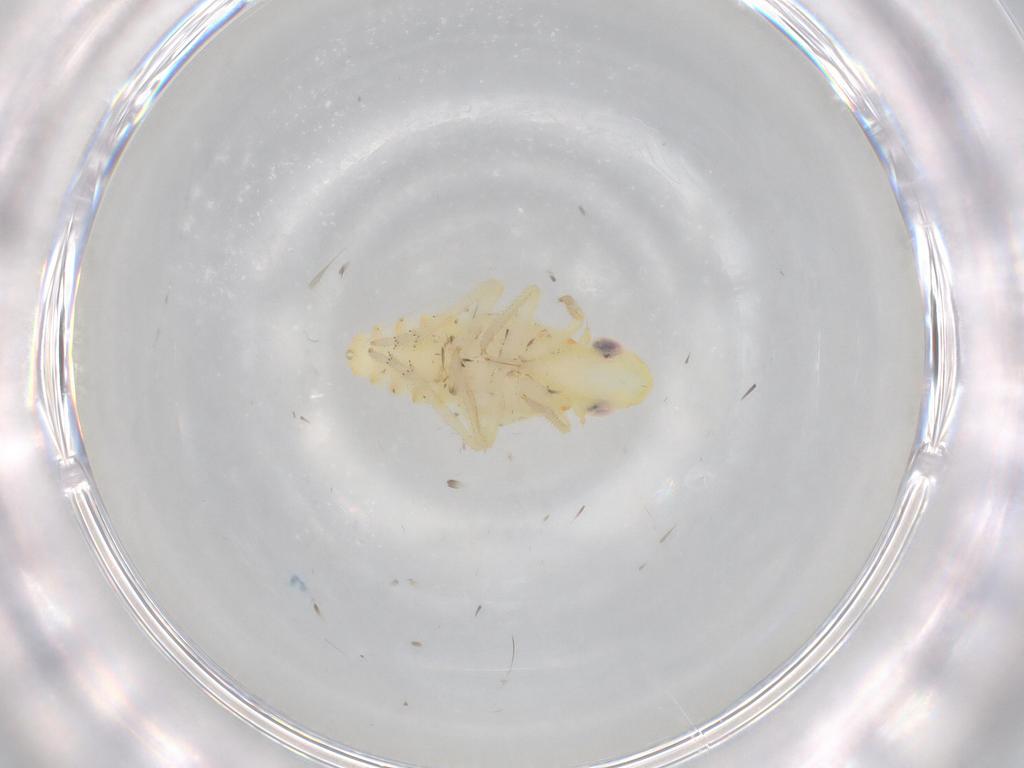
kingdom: Animalia
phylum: Arthropoda
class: Insecta
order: Hemiptera
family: Tropiduchidae
